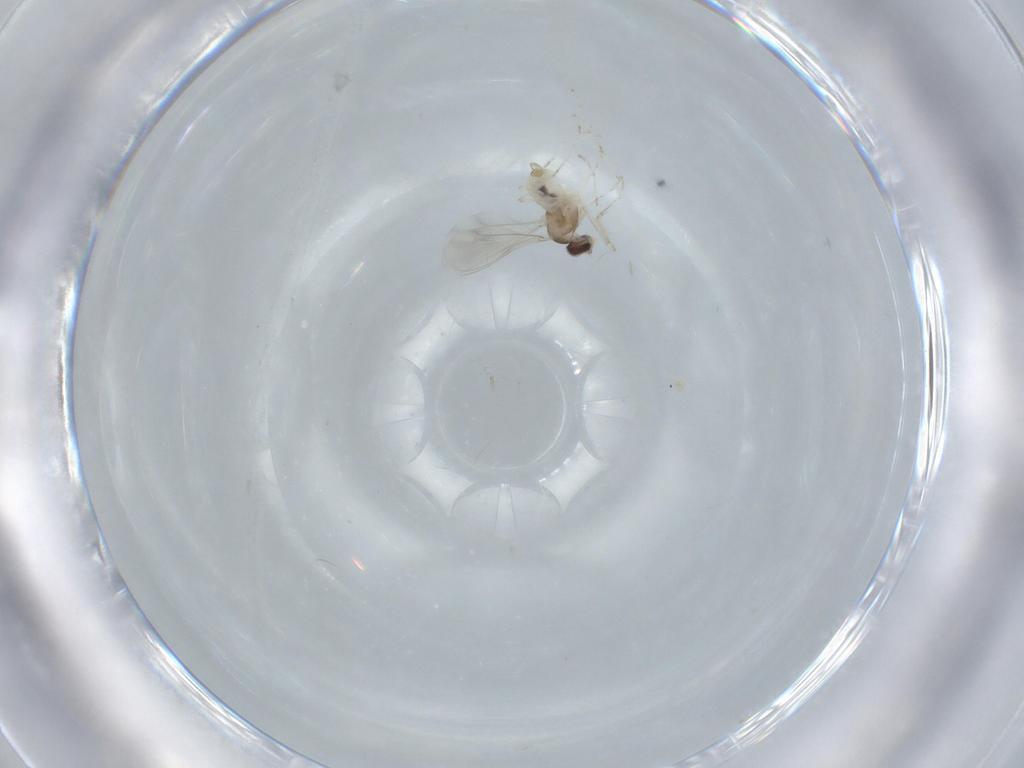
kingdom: Animalia
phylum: Arthropoda
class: Insecta
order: Diptera
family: Cecidomyiidae
